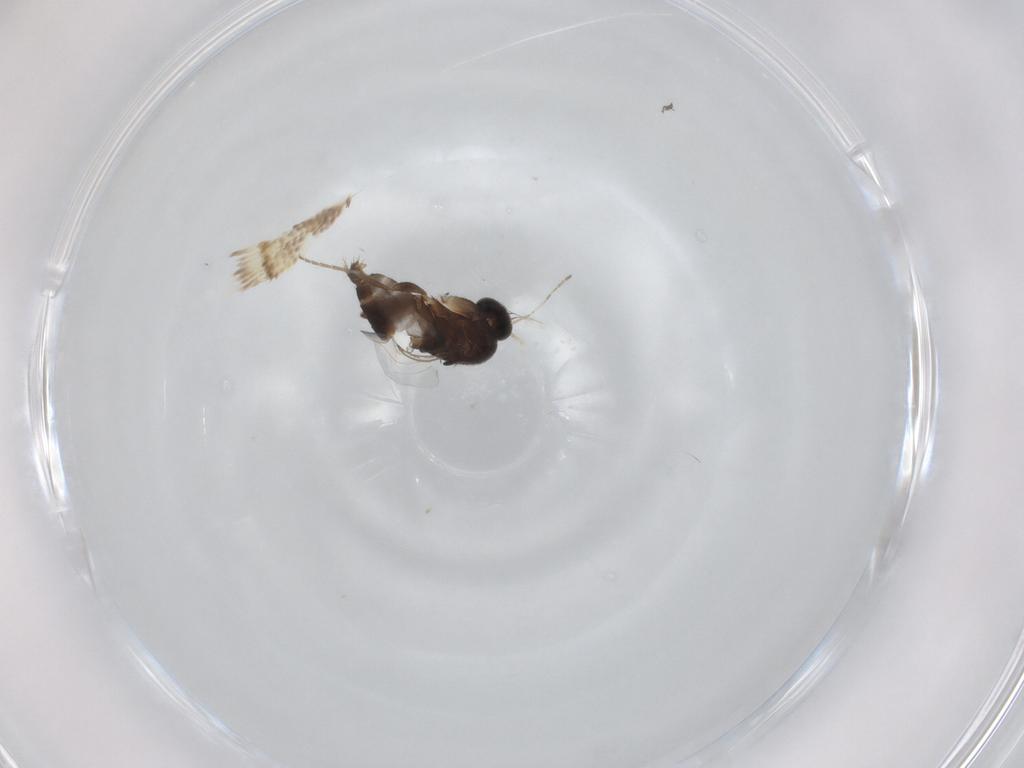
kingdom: Animalia
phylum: Arthropoda
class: Insecta
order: Diptera
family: Phoridae
